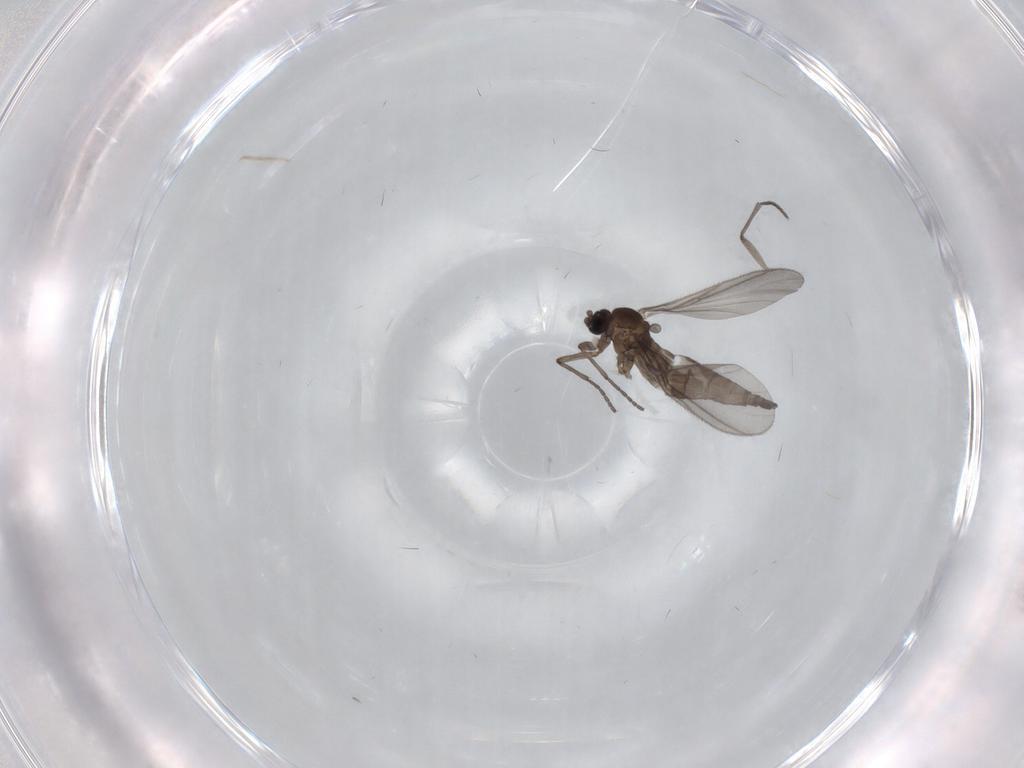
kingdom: Animalia
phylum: Arthropoda
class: Insecta
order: Diptera
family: Sciaridae
